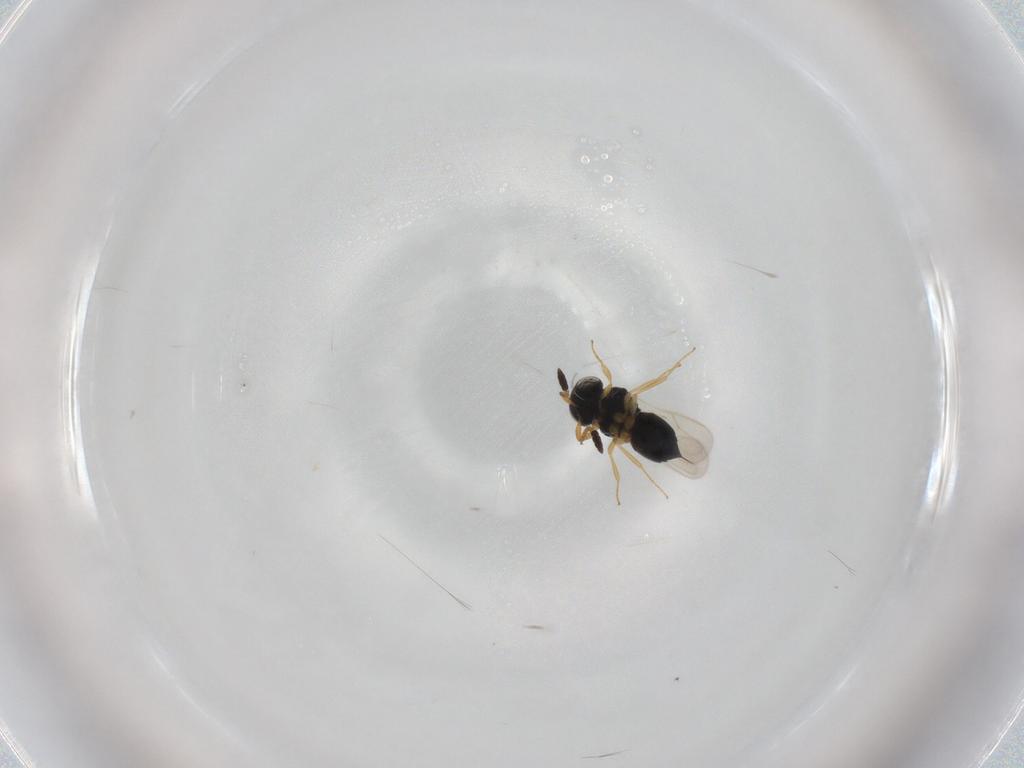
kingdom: Animalia
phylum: Arthropoda
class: Insecta
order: Hymenoptera
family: Scelionidae
